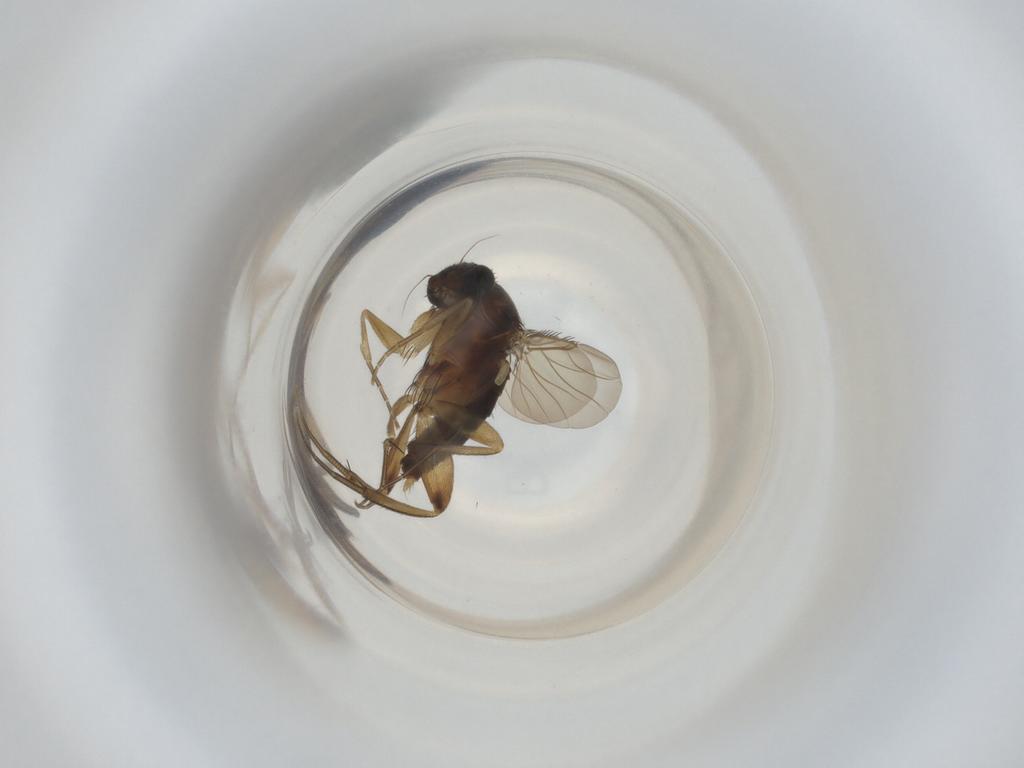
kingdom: Animalia
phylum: Arthropoda
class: Insecta
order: Diptera
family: Phoridae
